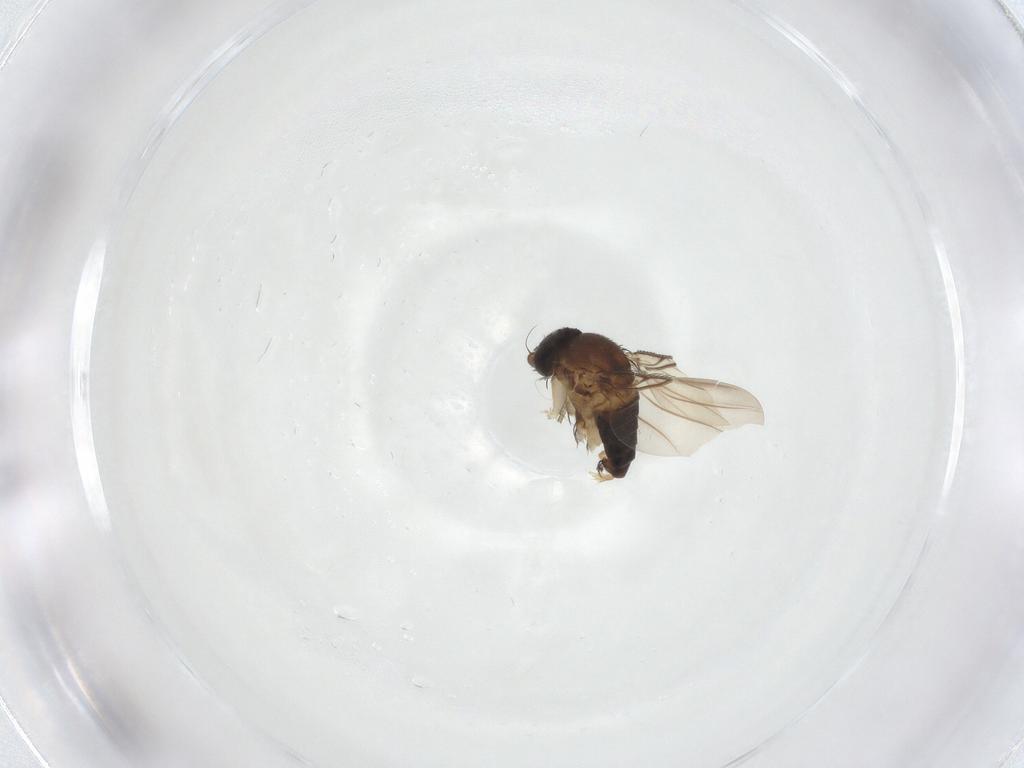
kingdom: Animalia
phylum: Arthropoda
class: Insecta
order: Diptera
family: Phoridae
